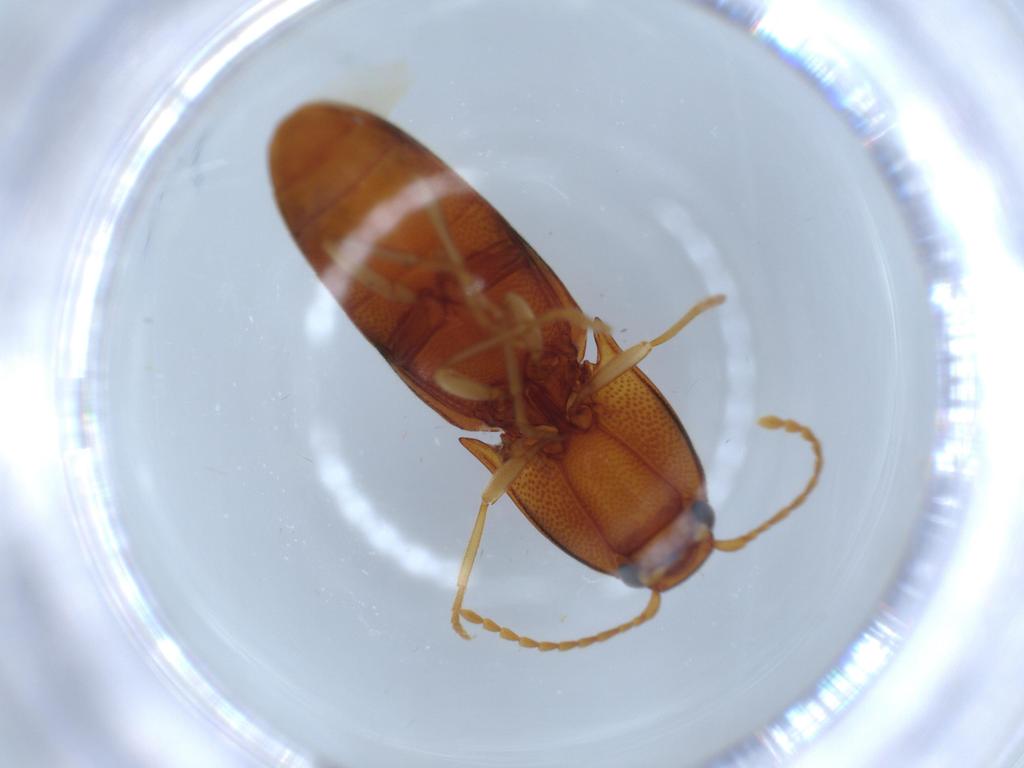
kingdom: Animalia
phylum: Arthropoda
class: Insecta
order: Coleoptera
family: Elateridae
